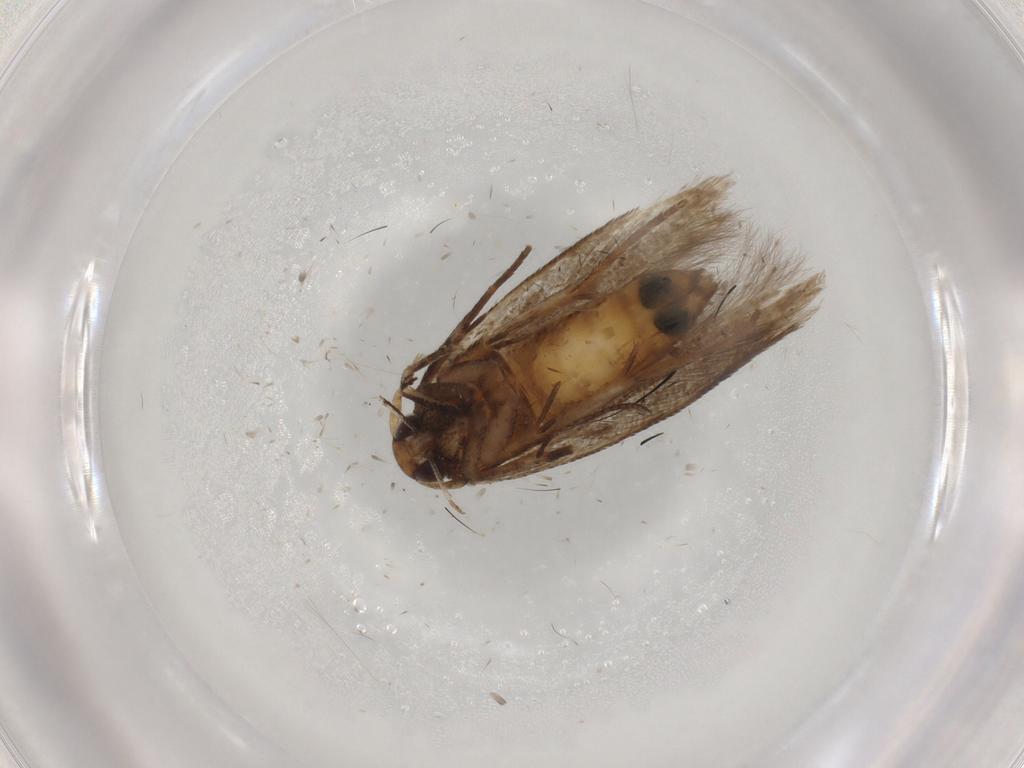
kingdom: Animalia
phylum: Arthropoda
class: Insecta
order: Lepidoptera
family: Cosmopterigidae
